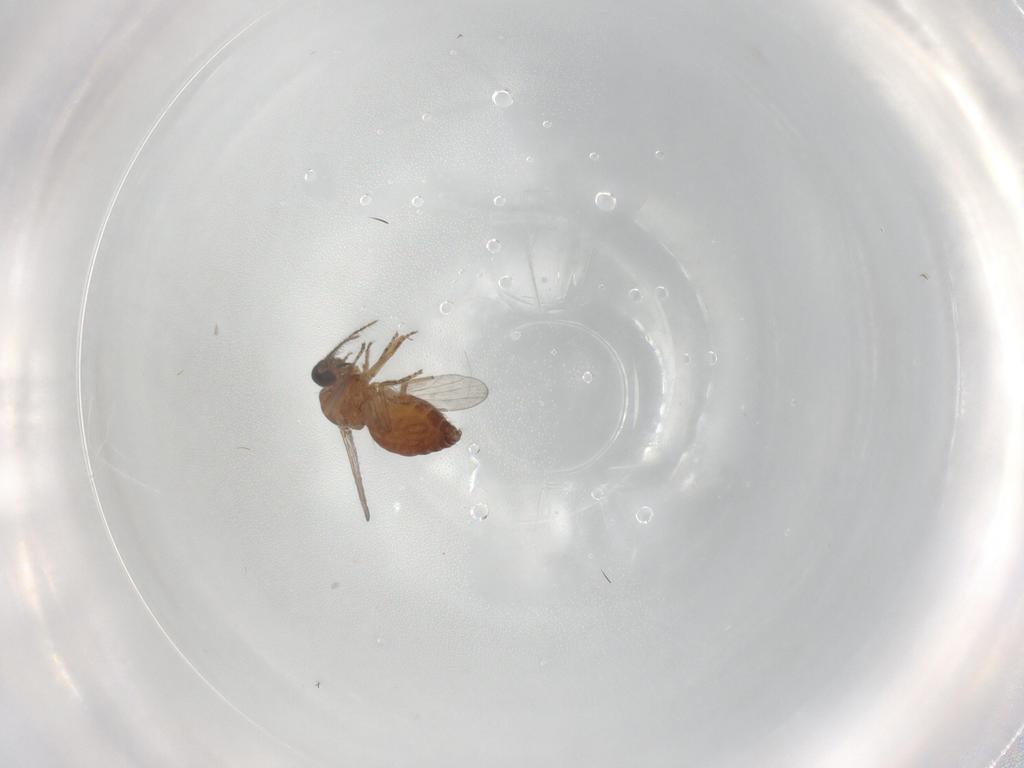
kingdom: Animalia
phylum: Arthropoda
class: Insecta
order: Diptera
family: Ceratopogonidae
